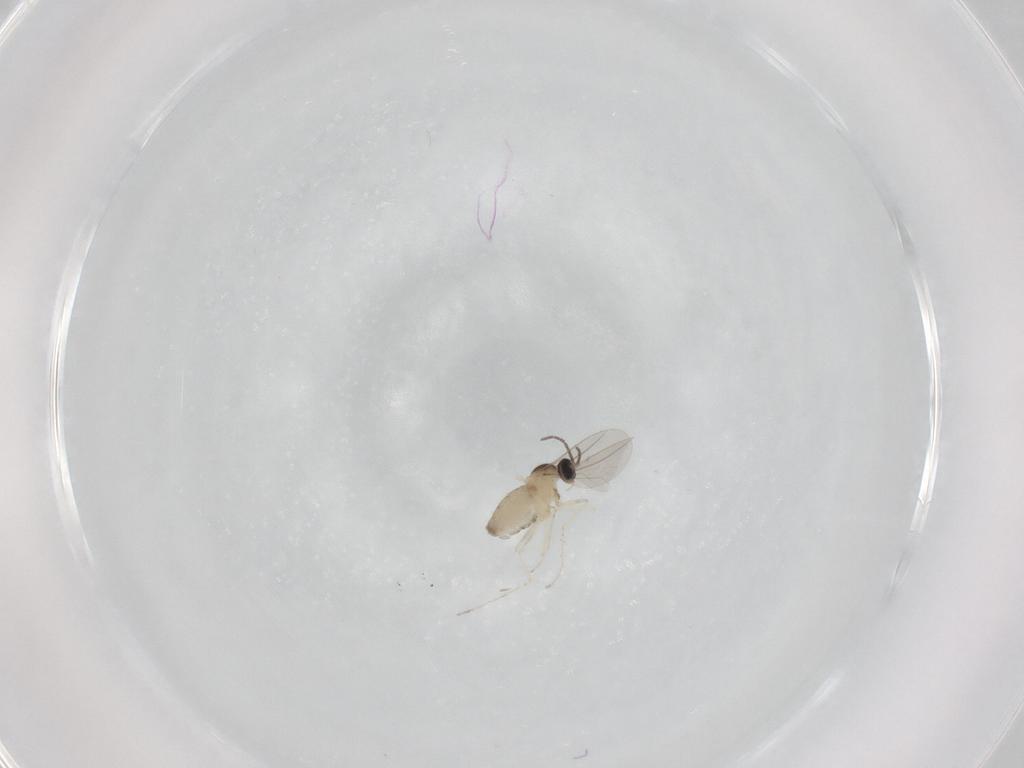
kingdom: Animalia
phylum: Arthropoda
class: Insecta
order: Diptera
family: Cecidomyiidae
